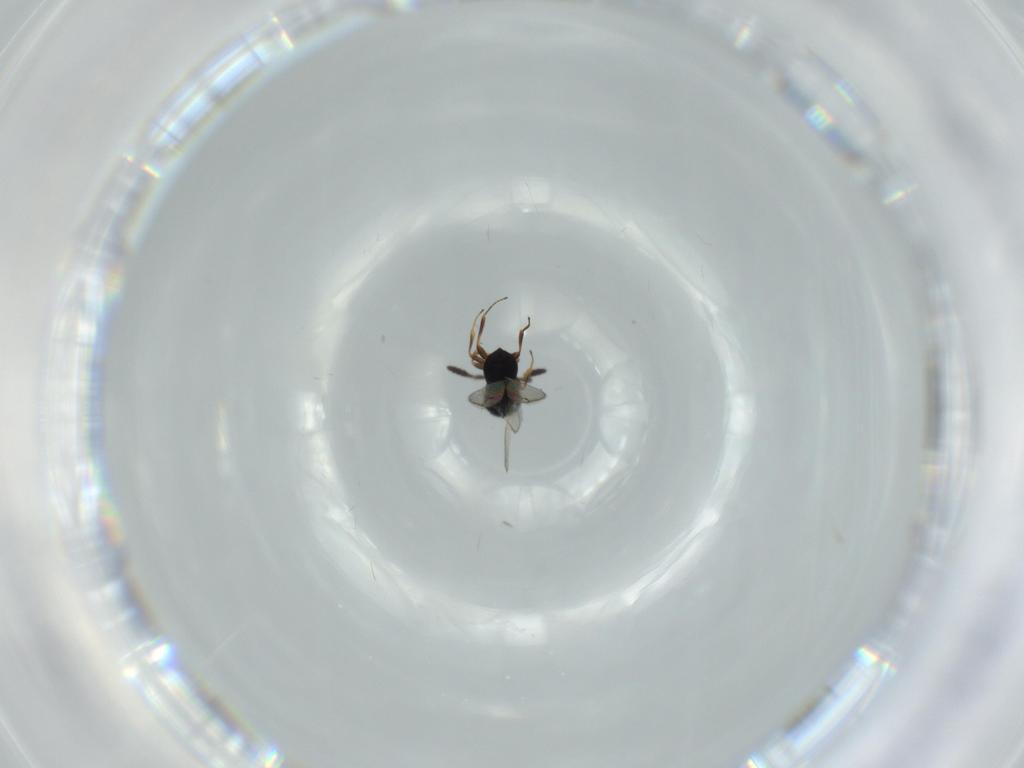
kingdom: Animalia
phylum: Arthropoda
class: Insecta
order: Hymenoptera
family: Scelionidae
